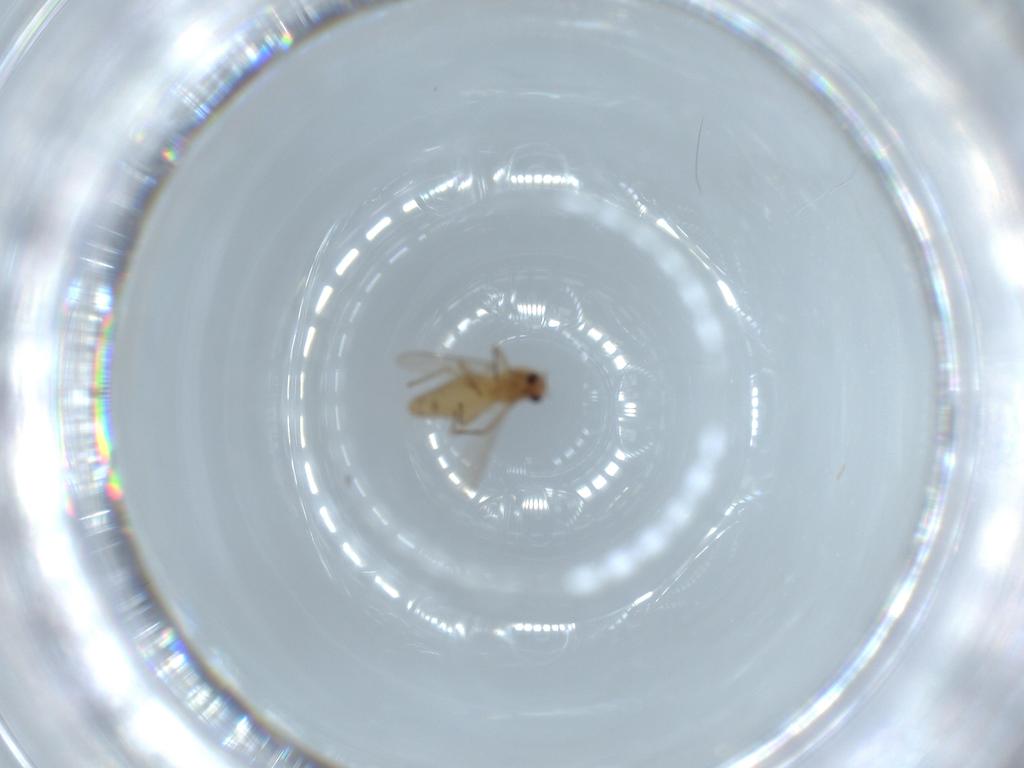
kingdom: Animalia
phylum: Arthropoda
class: Insecta
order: Diptera
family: Chironomidae
